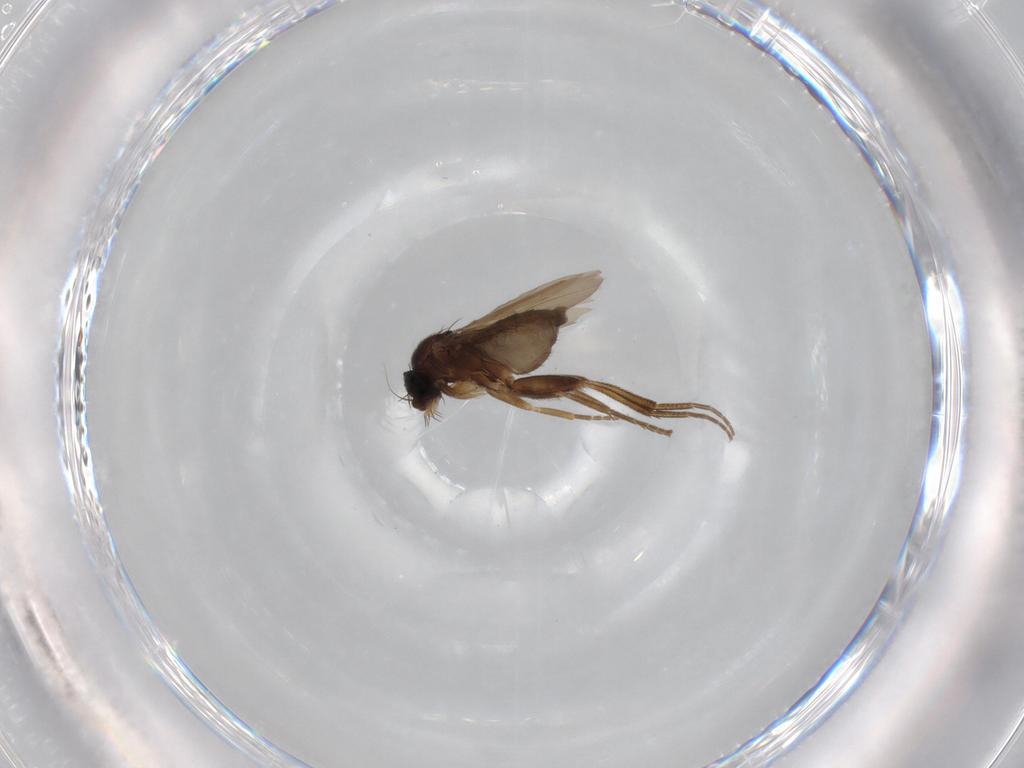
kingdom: Animalia
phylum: Arthropoda
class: Insecta
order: Diptera
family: Phoridae
